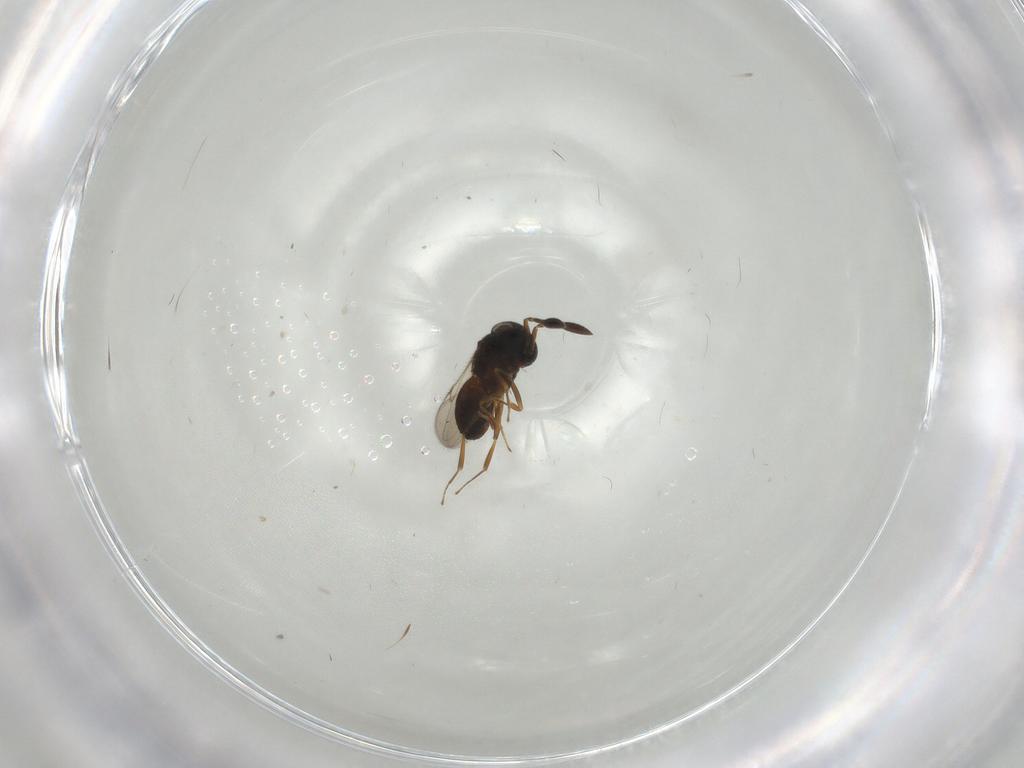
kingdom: Animalia
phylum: Arthropoda
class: Insecta
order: Hymenoptera
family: Scelionidae
